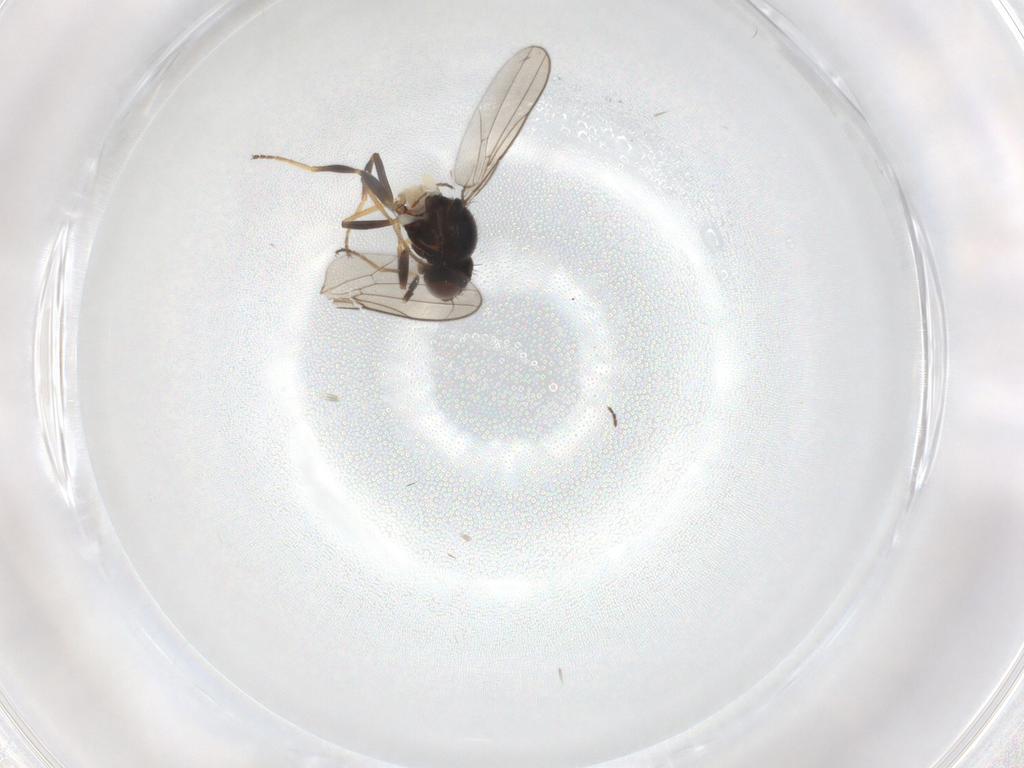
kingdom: Animalia
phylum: Arthropoda
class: Insecta
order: Diptera
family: Chloropidae
